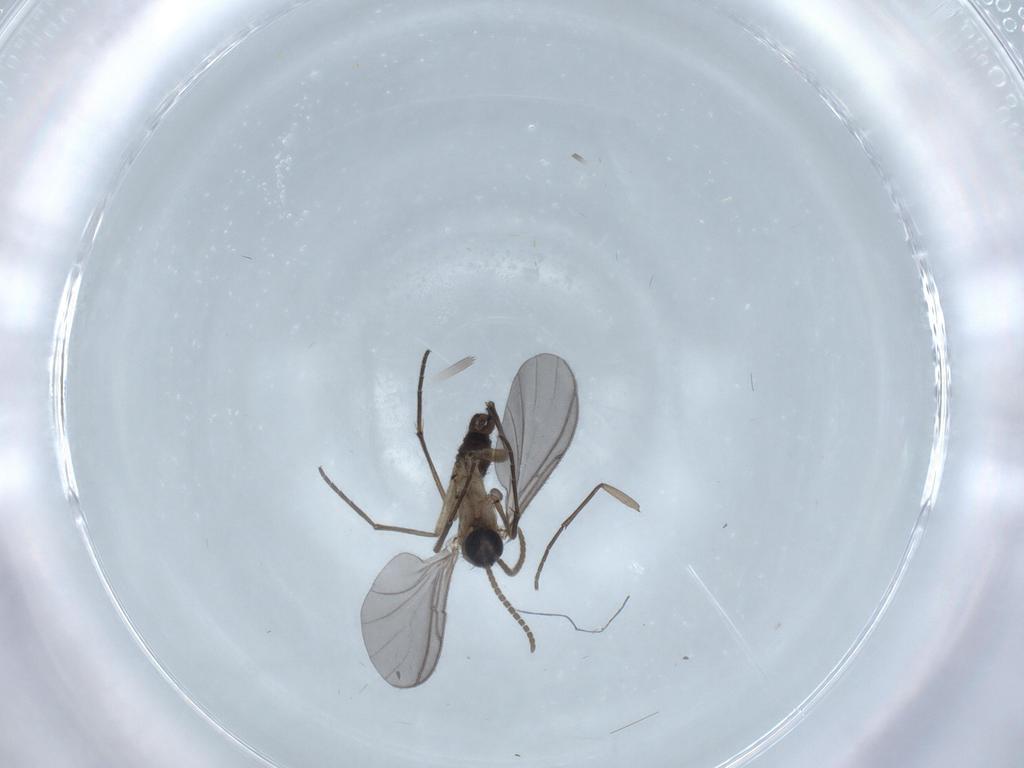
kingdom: Animalia
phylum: Arthropoda
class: Insecta
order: Diptera
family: Sciaridae
